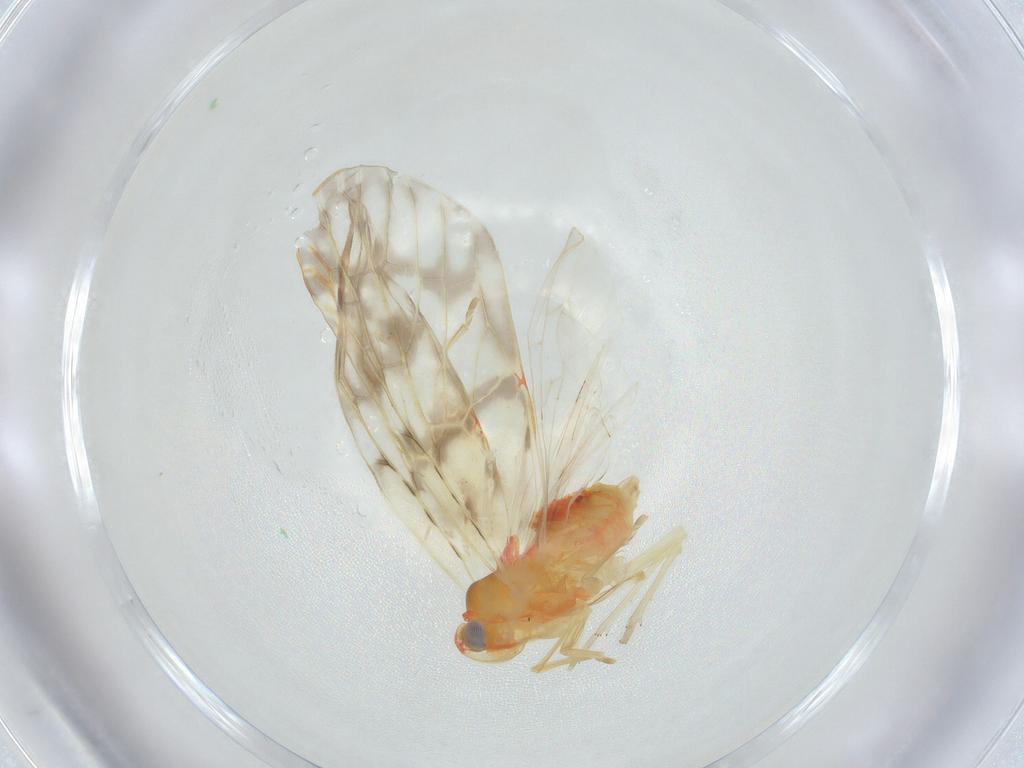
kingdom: Animalia
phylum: Arthropoda
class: Insecta
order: Hemiptera
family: Derbidae
